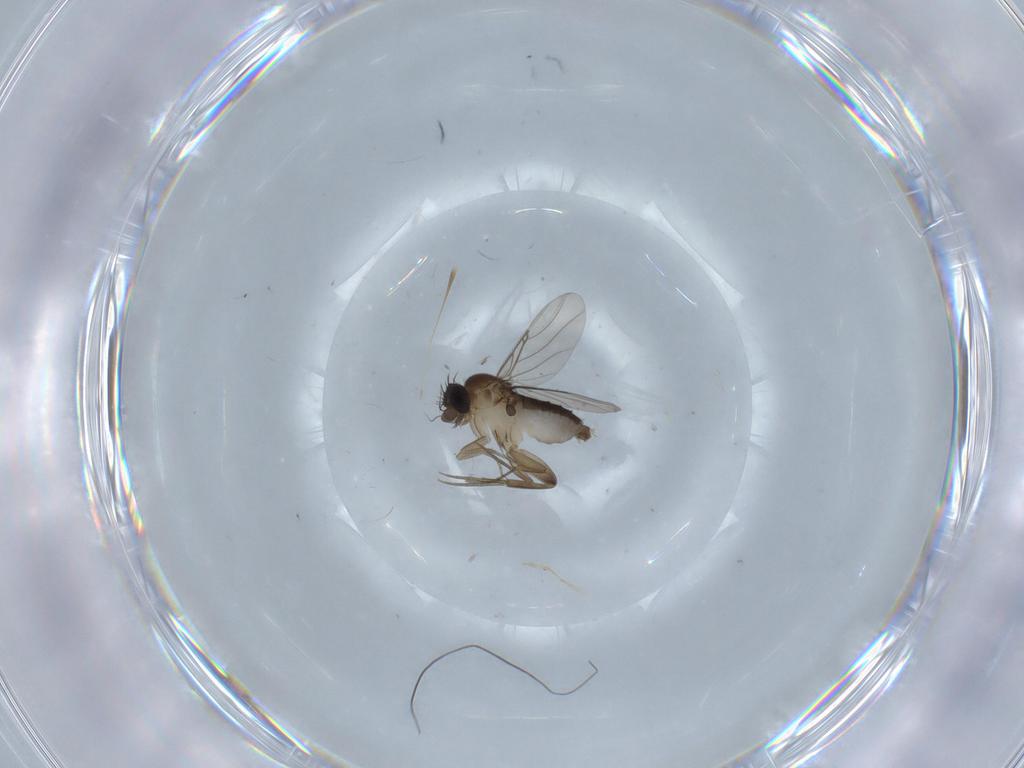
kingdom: Animalia
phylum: Arthropoda
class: Insecta
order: Diptera
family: Phoridae
